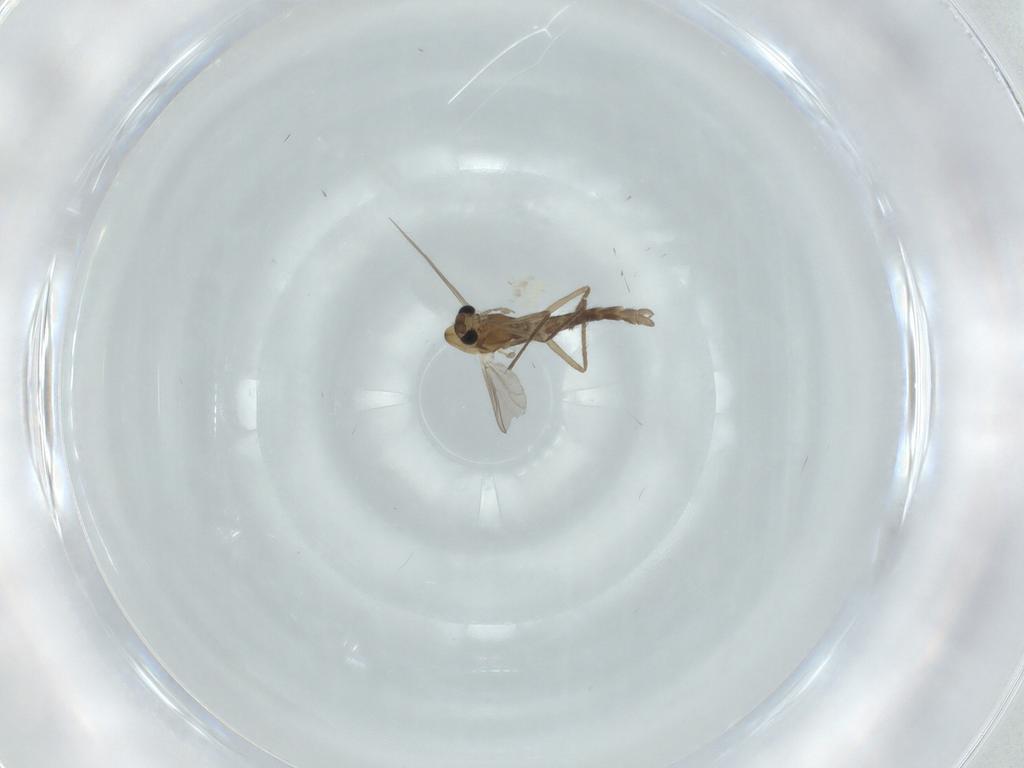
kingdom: Animalia
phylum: Arthropoda
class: Insecta
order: Diptera
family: Chironomidae
